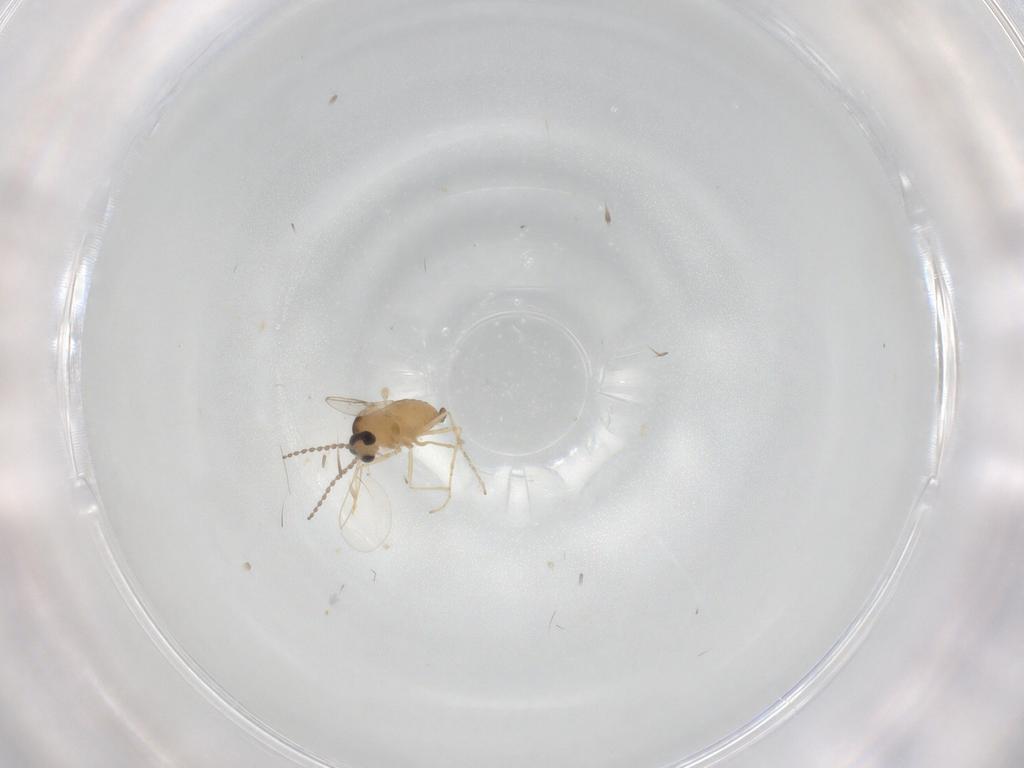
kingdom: Animalia
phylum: Arthropoda
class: Insecta
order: Diptera
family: Cecidomyiidae
